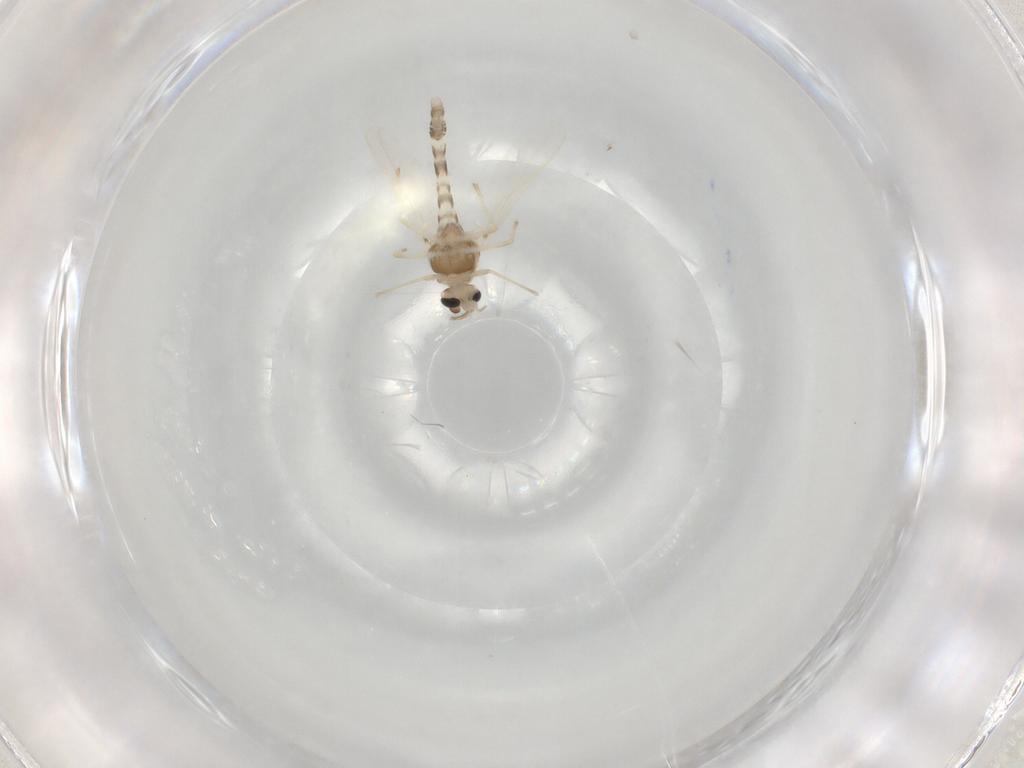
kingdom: Animalia
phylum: Arthropoda
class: Insecta
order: Diptera
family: Chironomidae
